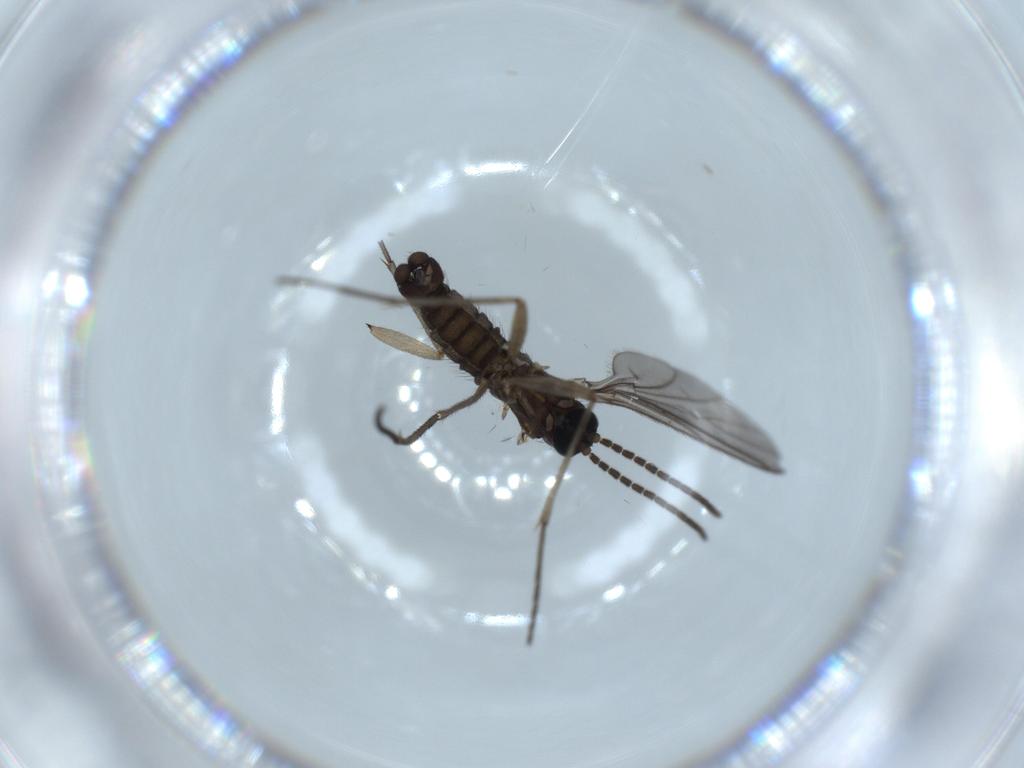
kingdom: Animalia
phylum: Arthropoda
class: Insecta
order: Diptera
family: Sciaridae
